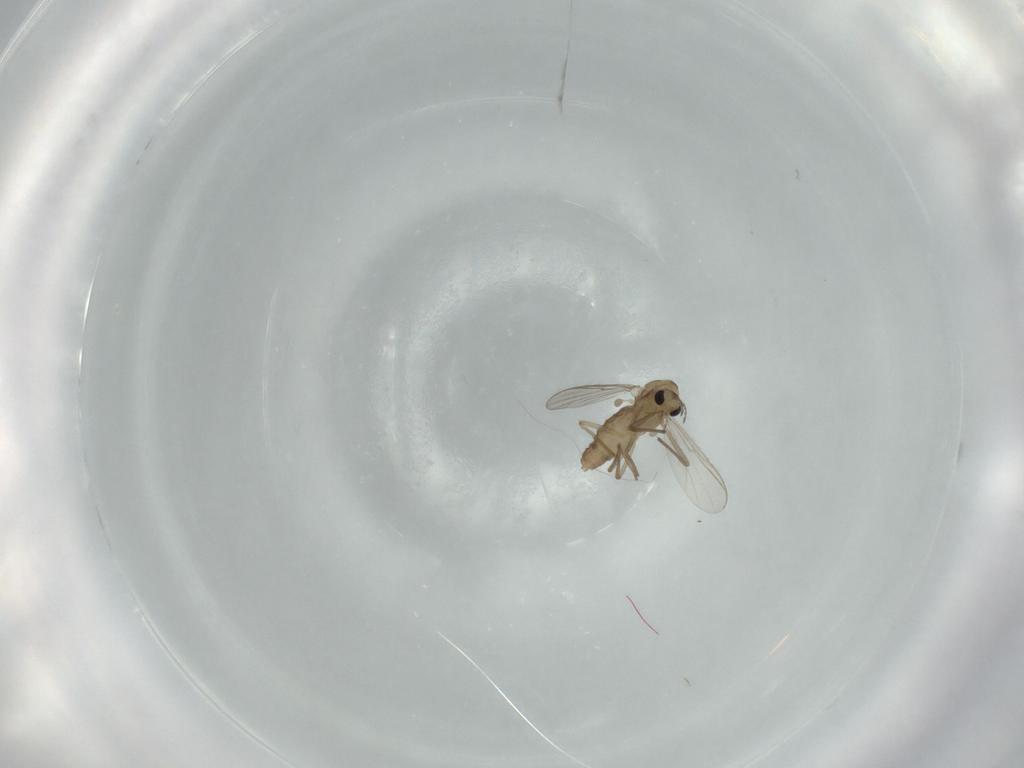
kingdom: Animalia
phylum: Arthropoda
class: Insecta
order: Diptera
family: Chironomidae
